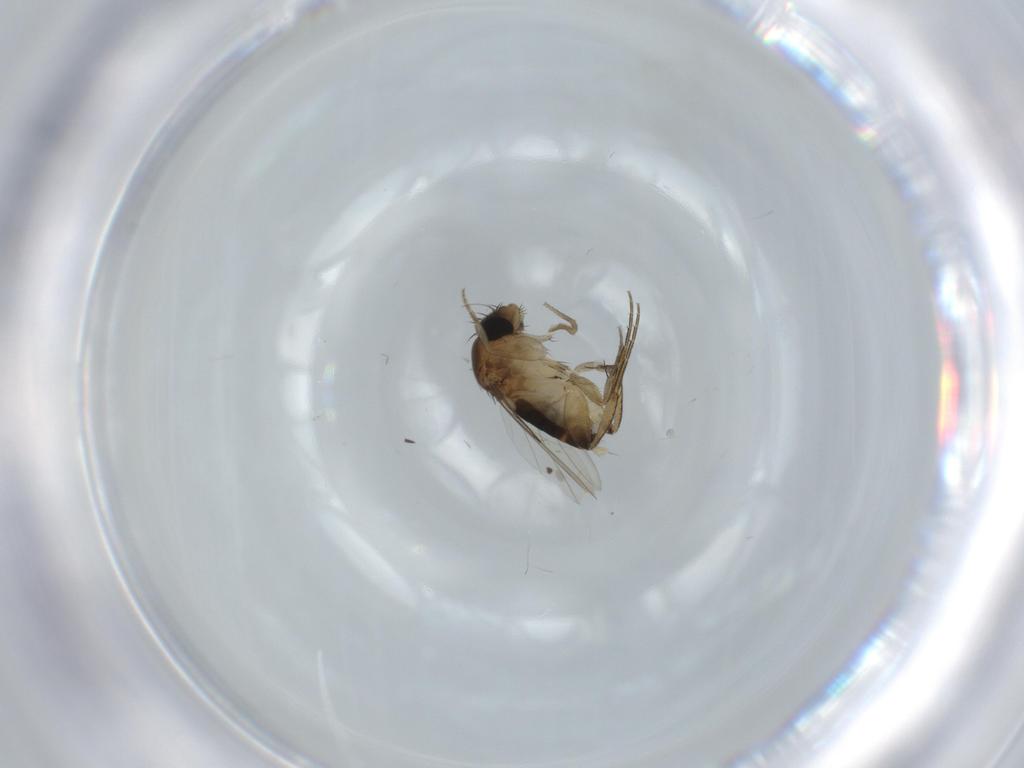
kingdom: Animalia
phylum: Arthropoda
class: Insecta
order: Diptera
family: Phoridae
